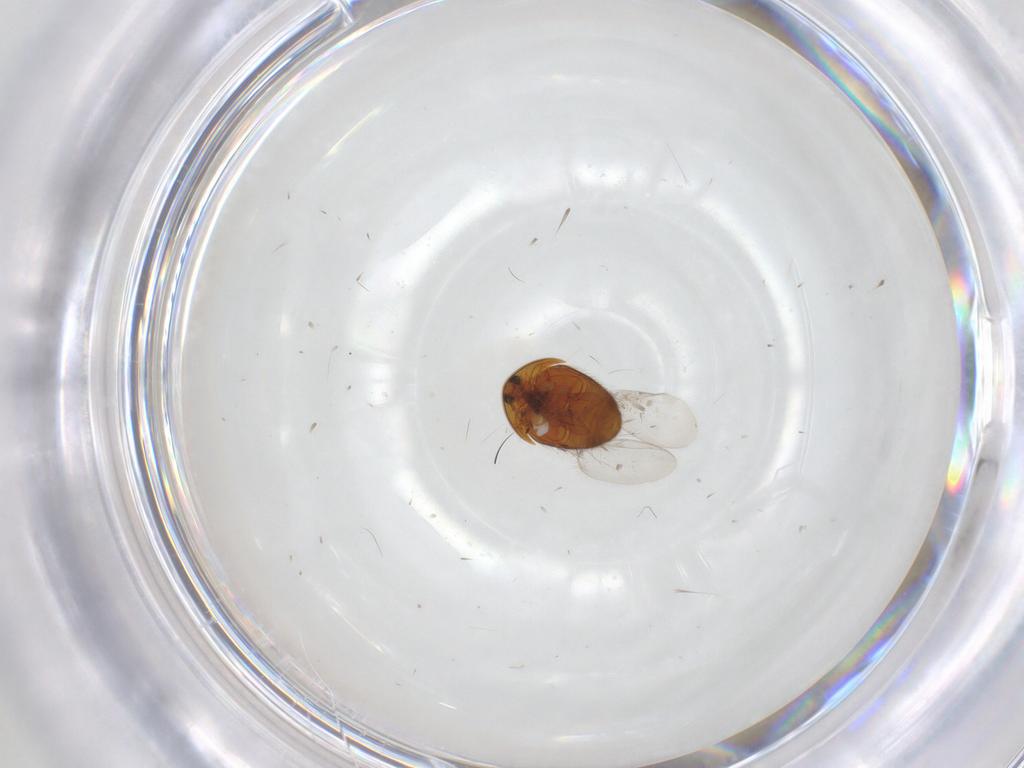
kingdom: Animalia
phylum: Arthropoda
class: Insecta
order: Coleoptera
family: Corylophidae
